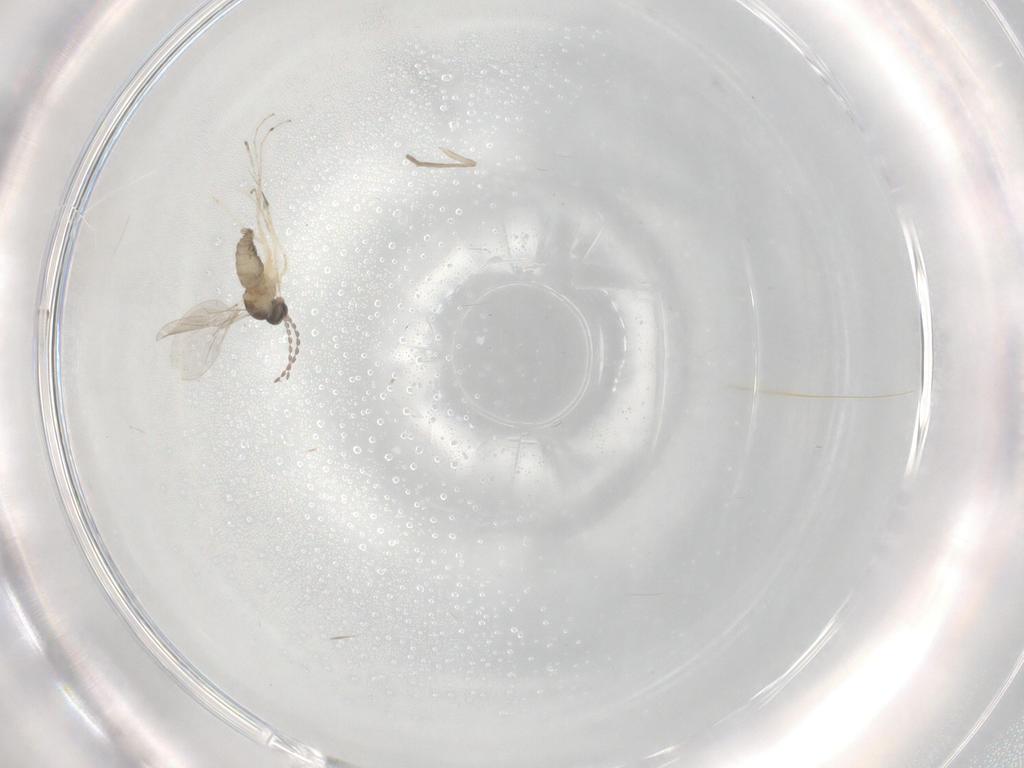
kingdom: Animalia
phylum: Arthropoda
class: Insecta
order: Diptera
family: Psychodidae
